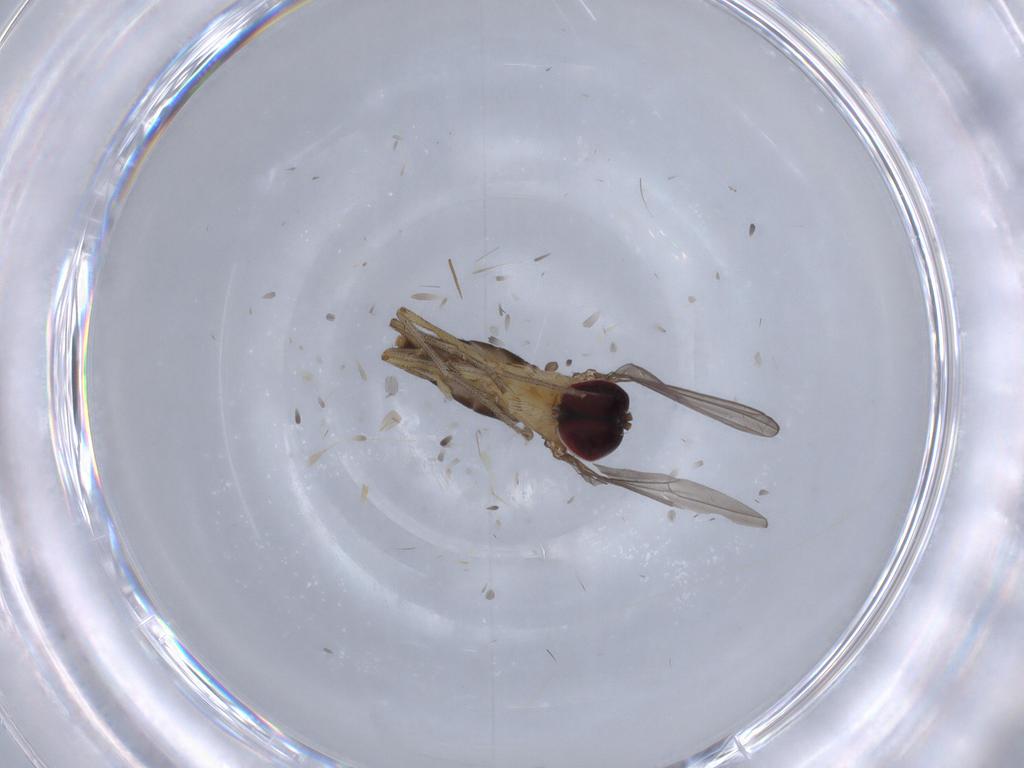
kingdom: Animalia
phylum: Arthropoda
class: Insecta
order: Diptera
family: Dolichopodidae
